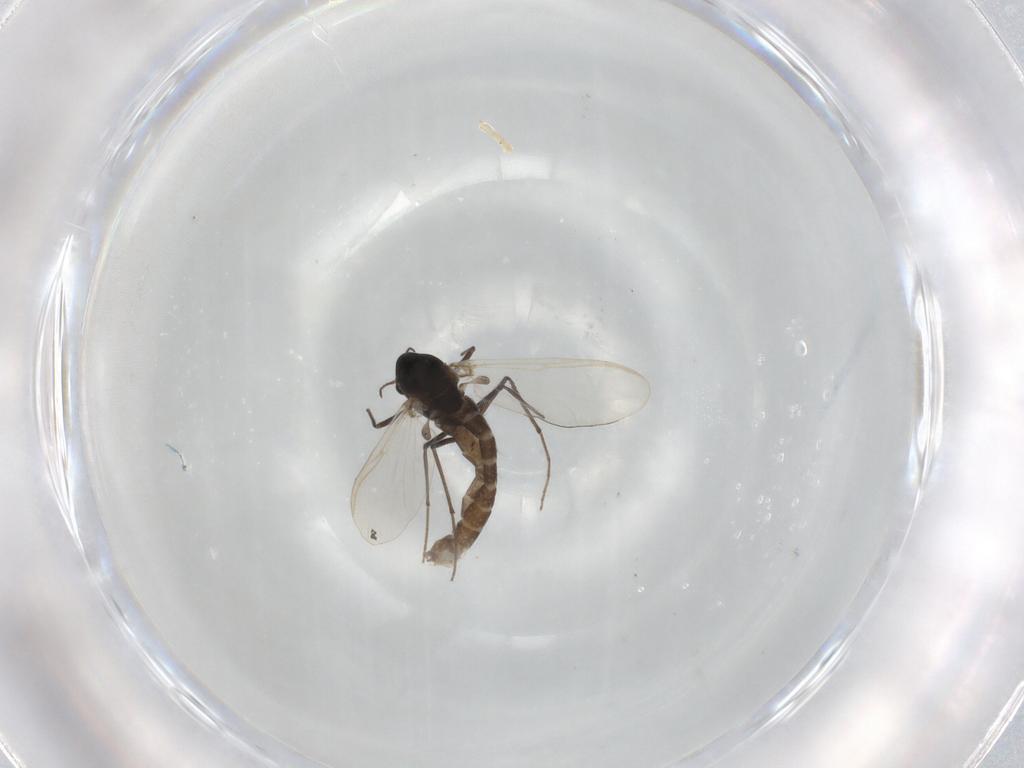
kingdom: Animalia
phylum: Arthropoda
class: Insecta
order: Diptera
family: Chironomidae
